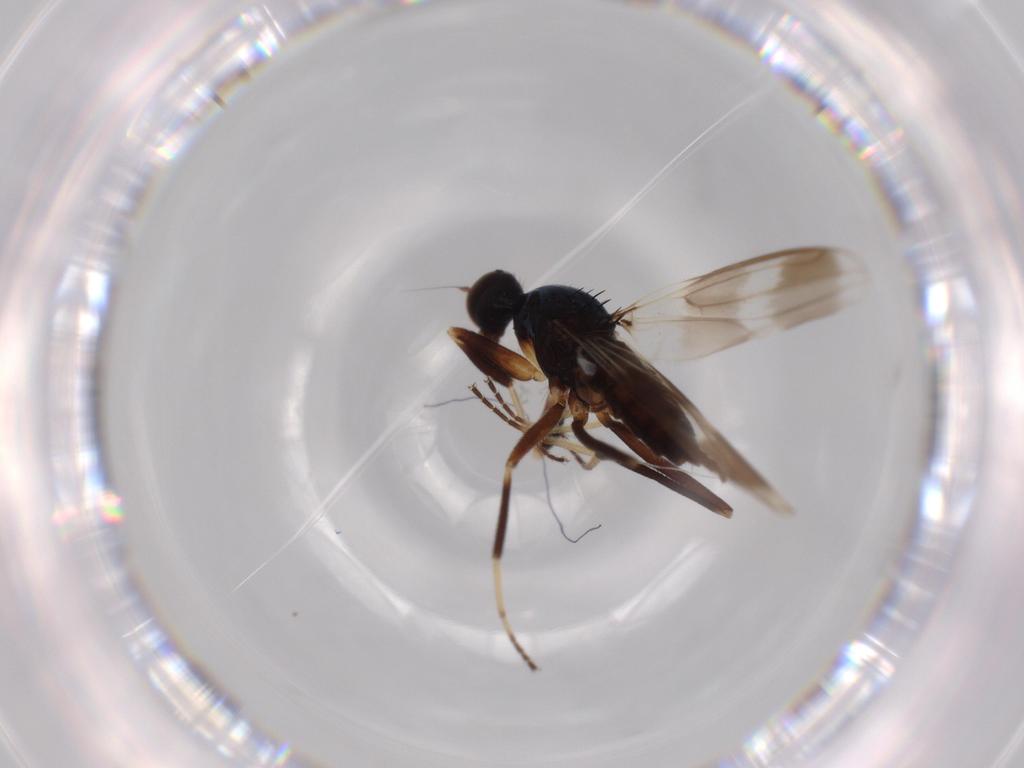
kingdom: Animalia
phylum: Arthropoda
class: Insecta
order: Diptera
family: Hybotidae
